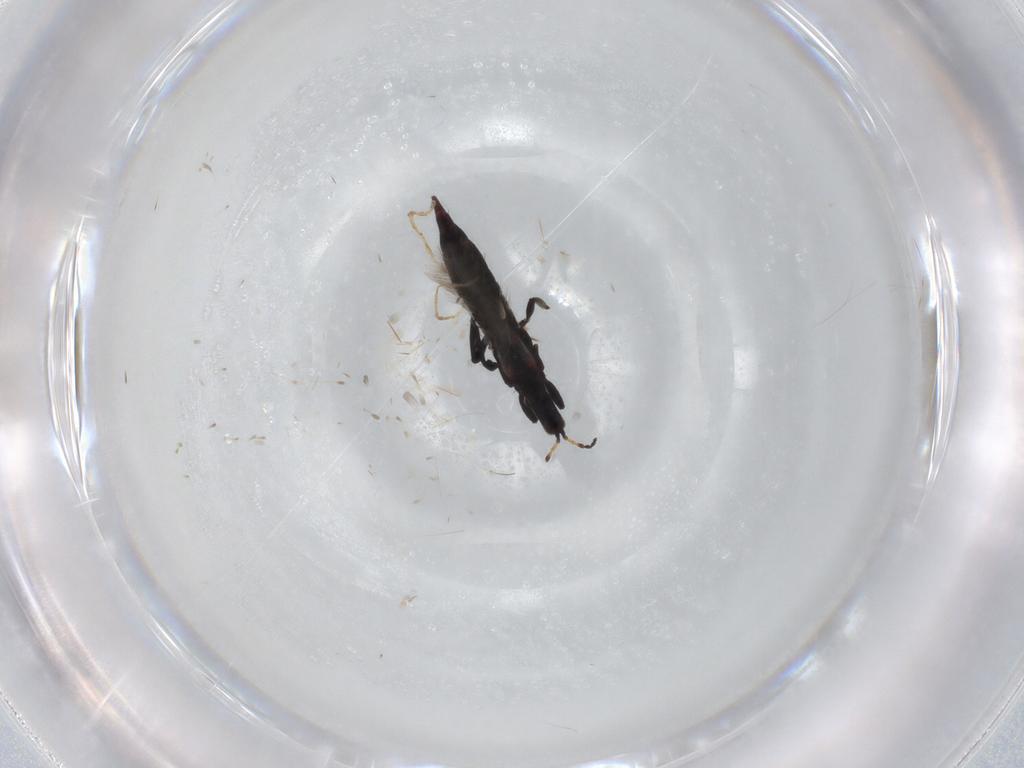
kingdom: Animalia
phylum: Arthropoda
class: Insecta
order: Thysanoptera
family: Phlaeothripidae
